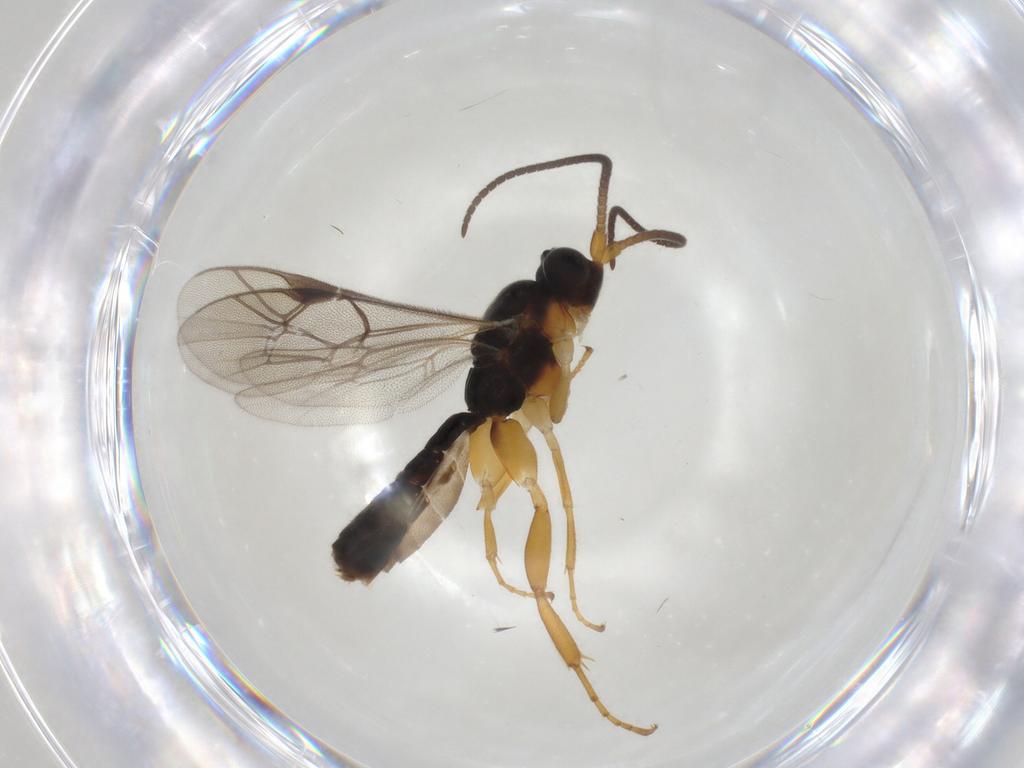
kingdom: Animalia
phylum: Arthropoda
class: Insecta
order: Hymenoptera
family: Ichneumonidae
